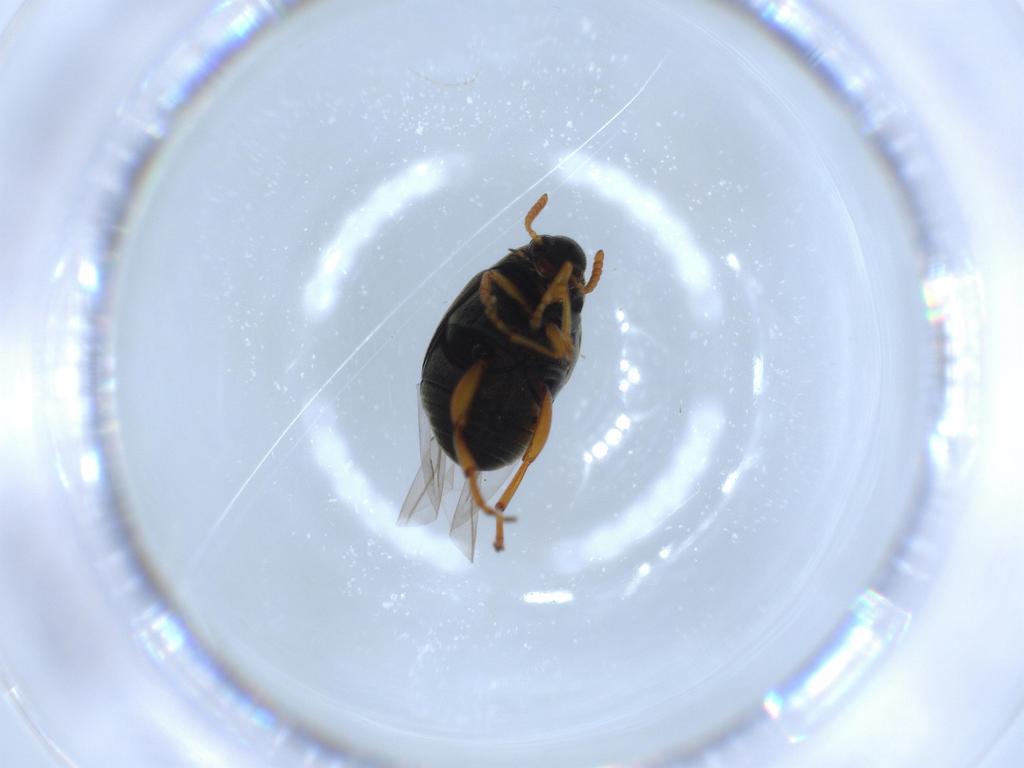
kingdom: Animalia
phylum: Arthropoda
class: Insecta
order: Coleoptera
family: Chrysomelidae
